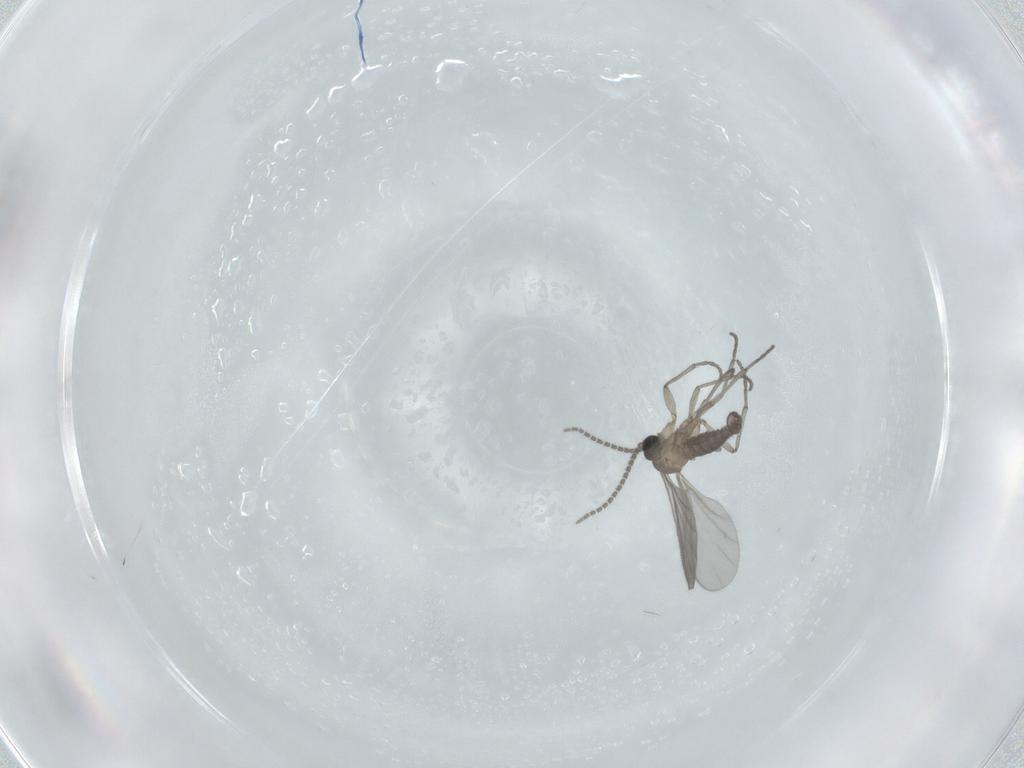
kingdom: Animalia
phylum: Arthropoda
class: Insecta
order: Diptera
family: Sciaridae
